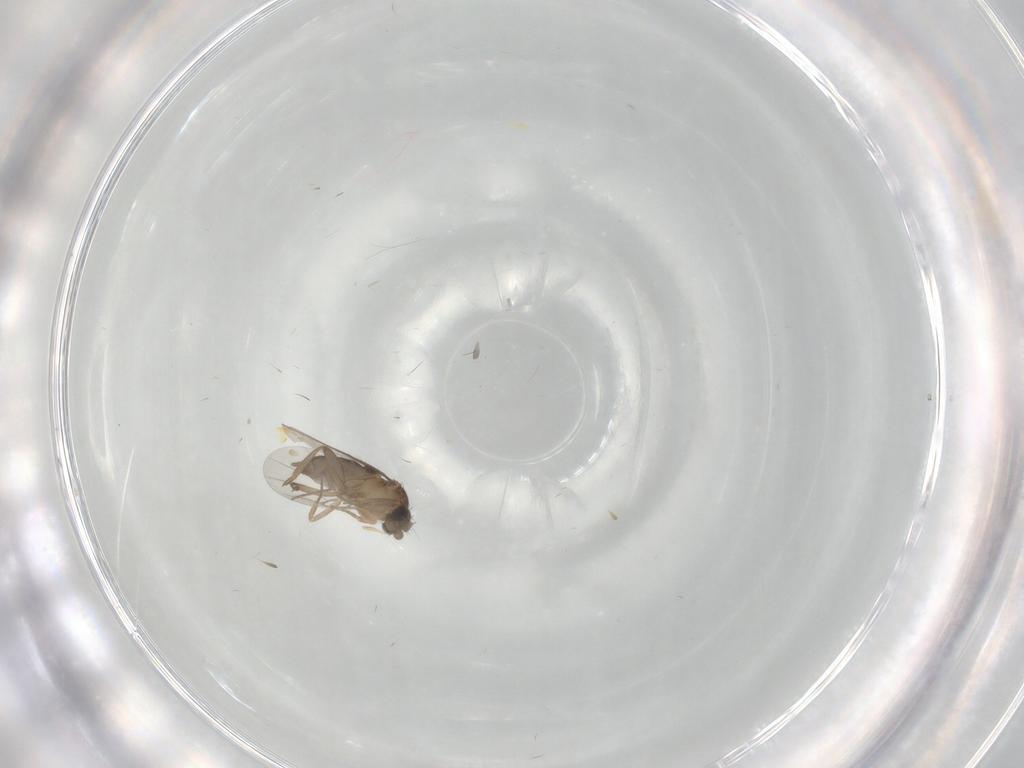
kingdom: Animalia
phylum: Arthropoda
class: Insecta
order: Diptera
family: Chironomidae
